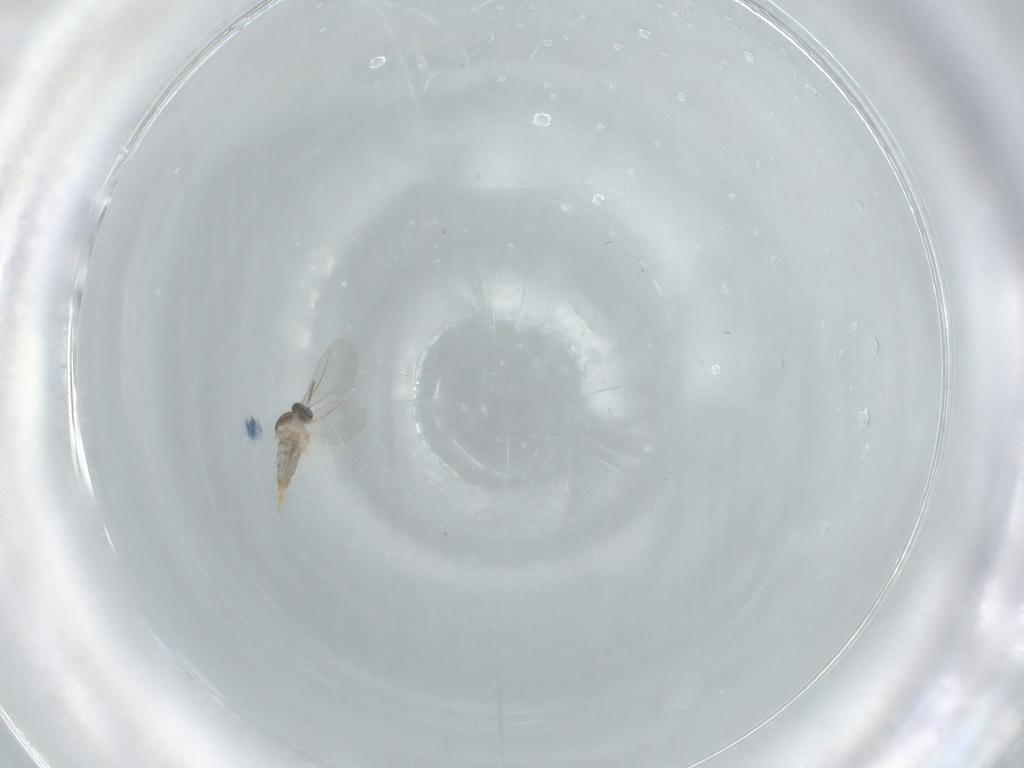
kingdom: Animalia
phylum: Arthropoda
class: Insecta
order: Diptera
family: Cecidomyiidae
